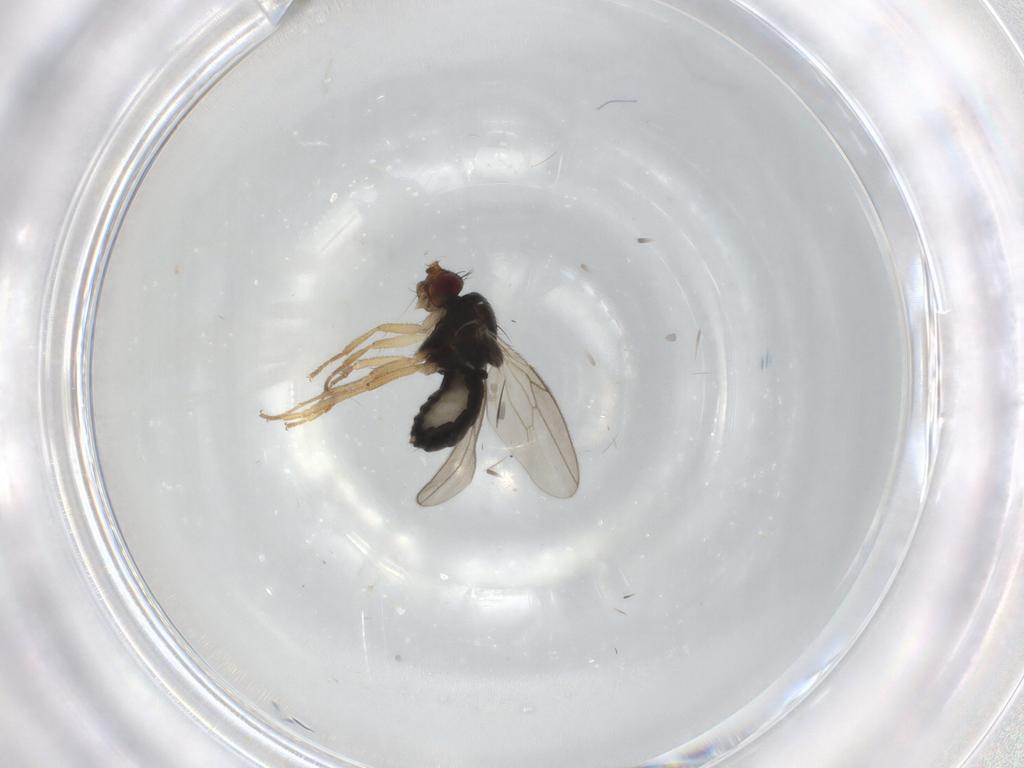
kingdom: Animalia
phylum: Arthropoda
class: Insecta
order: Diptera
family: Sphaeroceridae
